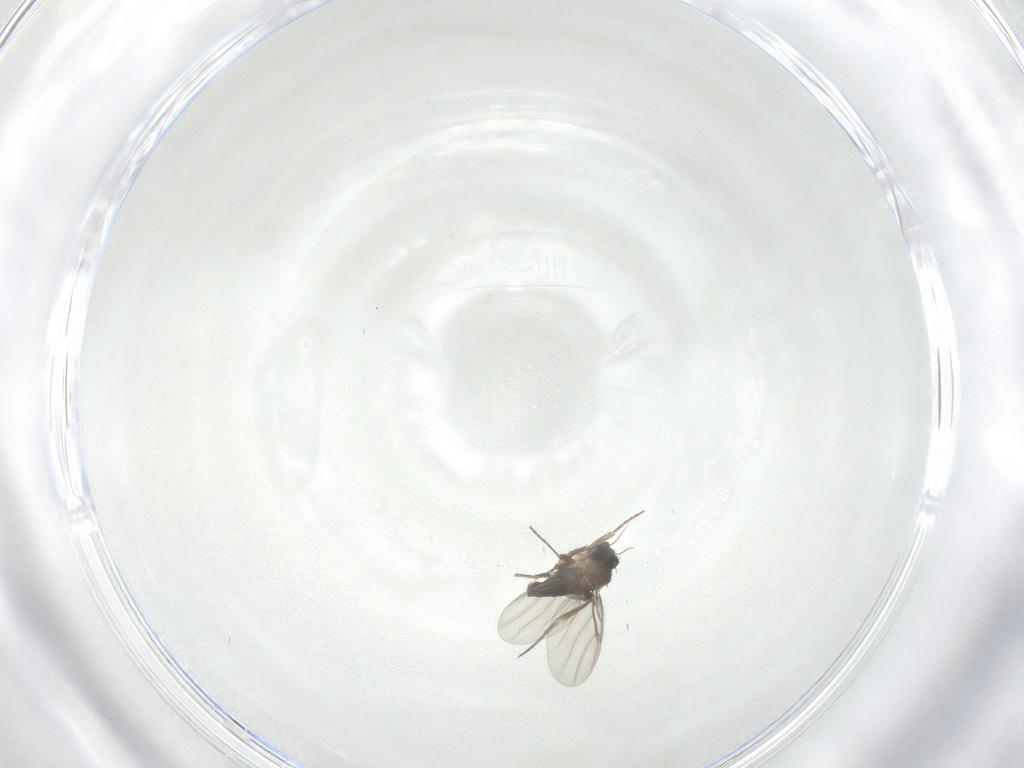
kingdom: Animalia
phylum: Arthropoda
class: Insecta
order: Diptera
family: Phoridae
